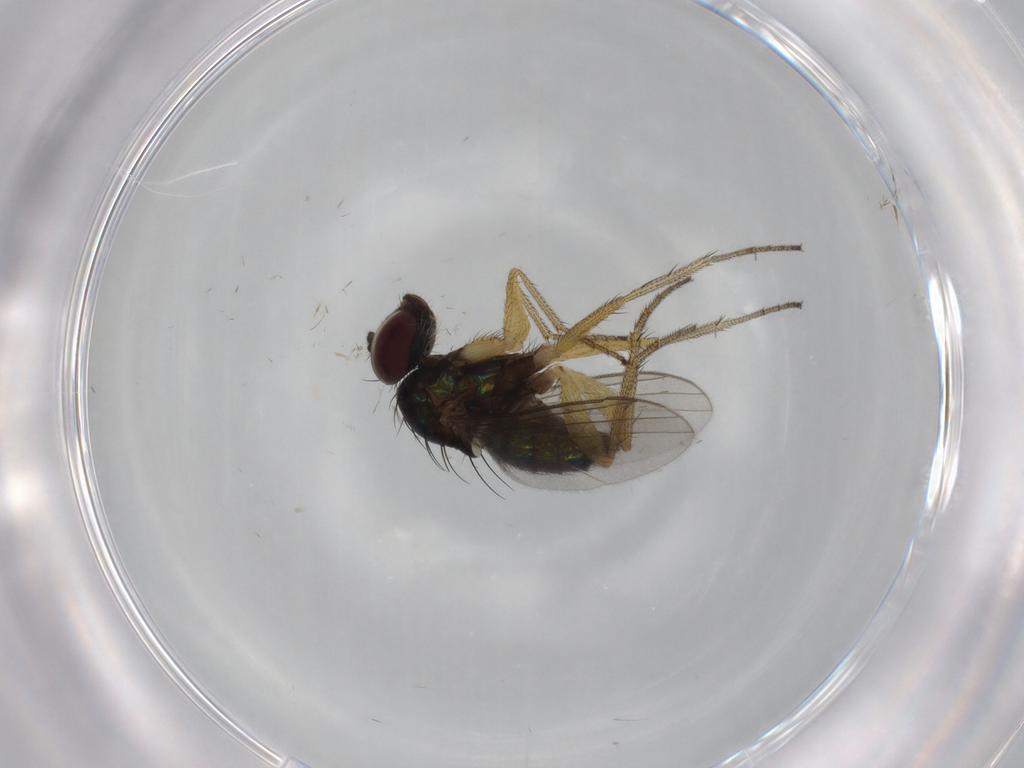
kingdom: Animalia
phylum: Arthropoda
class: Insecta
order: Diptera
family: Dolichopodidae
